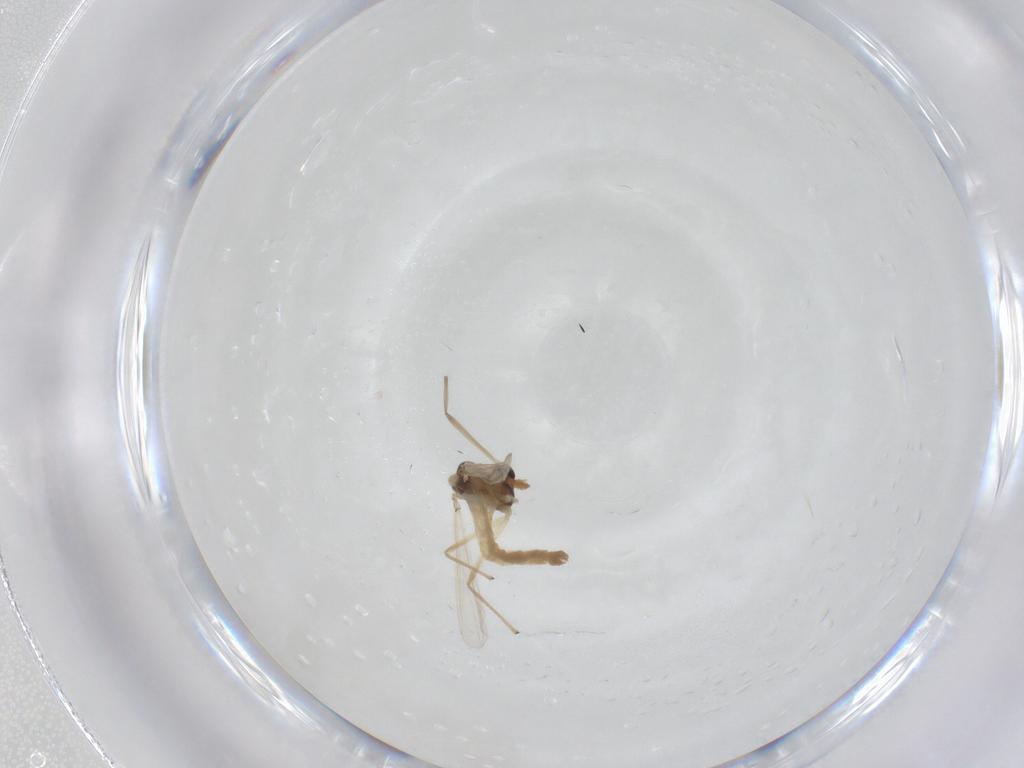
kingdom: Animalia
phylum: Arthropoda
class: Insecta
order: Diptera
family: Chironomidae
